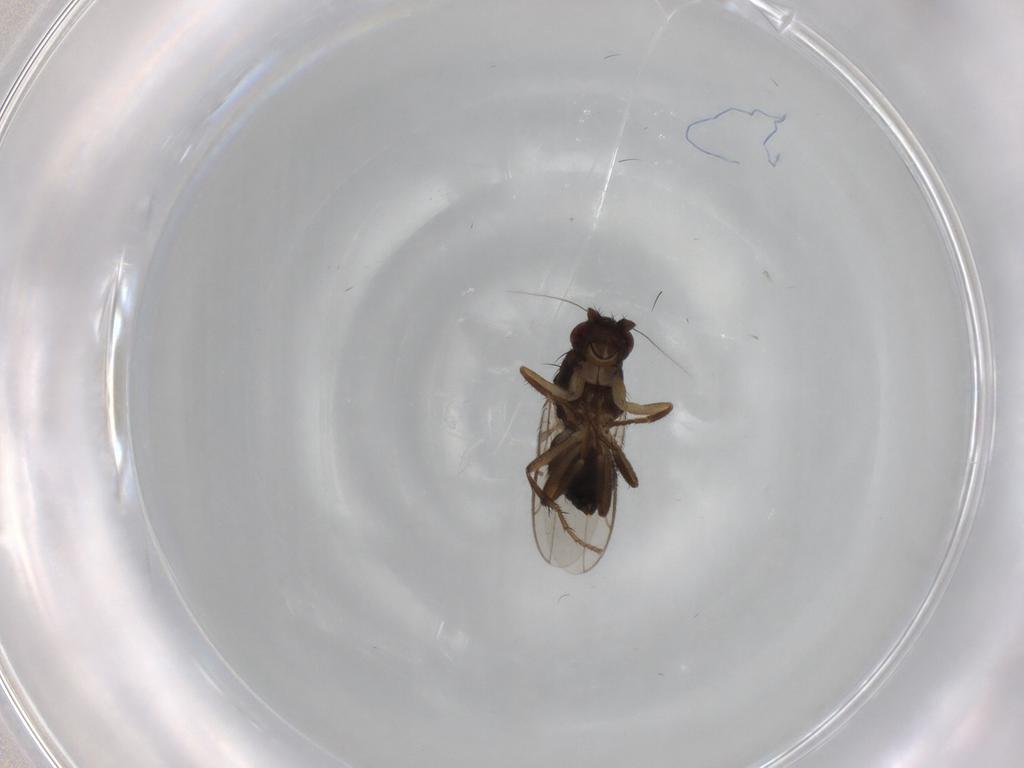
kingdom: Animalia
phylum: Arthropoda
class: Insecta
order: Diptera
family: Sphaeroceridae
